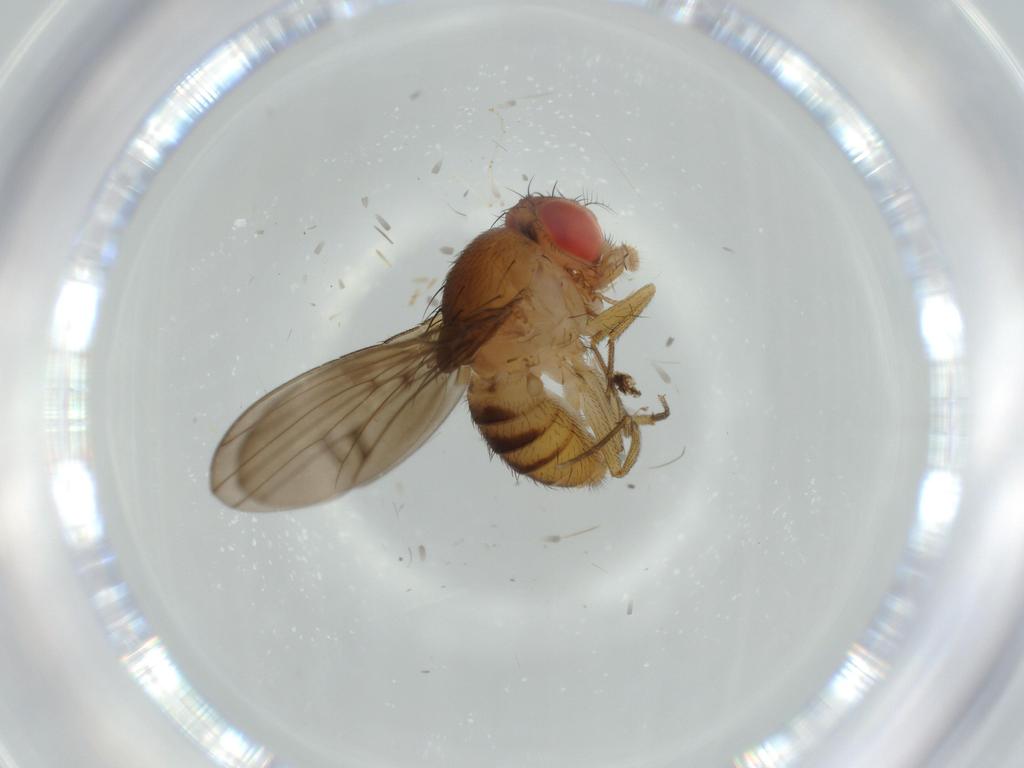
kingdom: Animalia
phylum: Arthropoda
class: Insecta
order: Diptera
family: Drosophilidae
